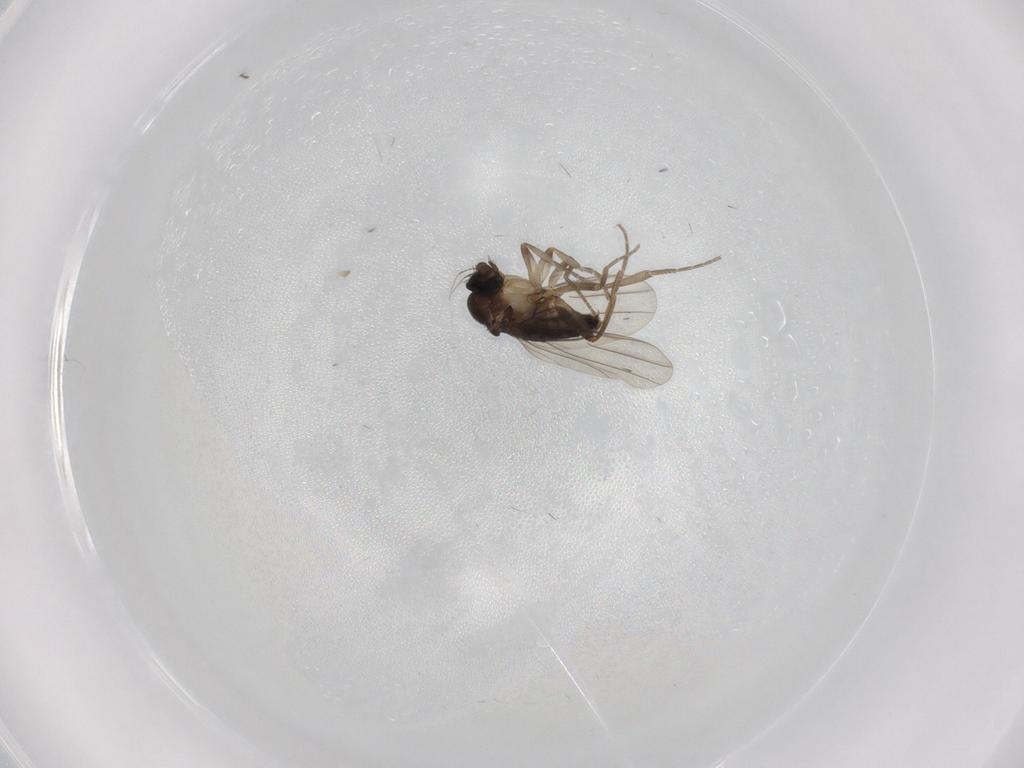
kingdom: Animalia
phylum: Arthropoda
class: Insecta
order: Diptera
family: Phoridae
